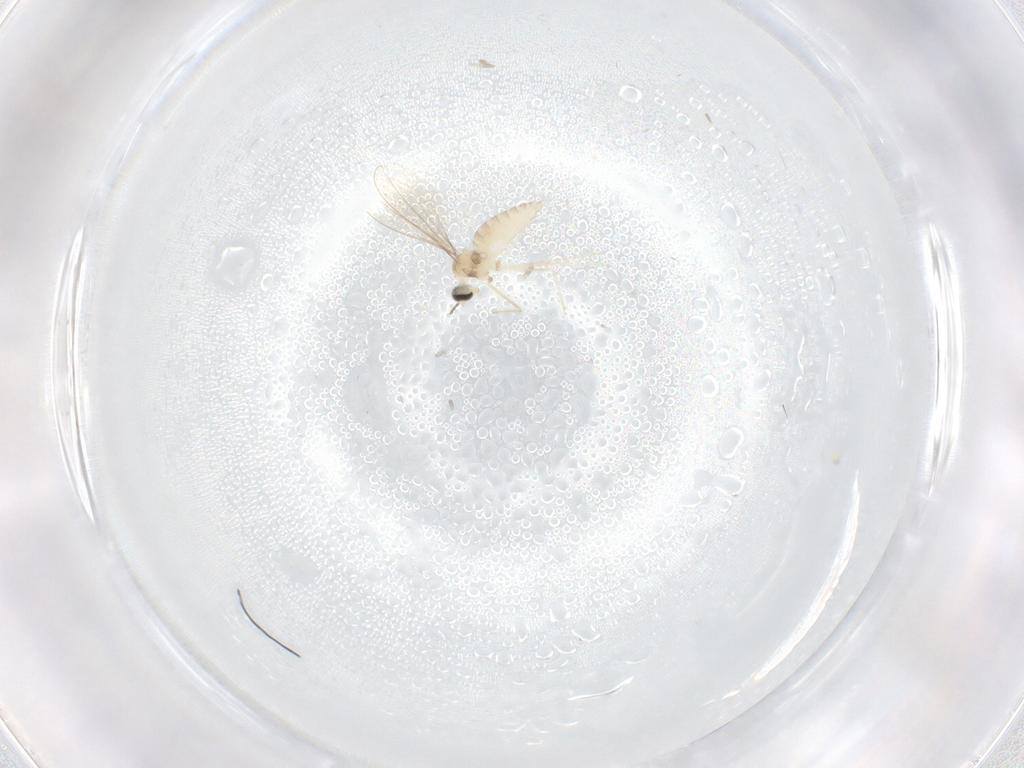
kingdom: Animalia
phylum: Arthropoda
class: Insecta
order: Diptera
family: Cecidomyiidae
